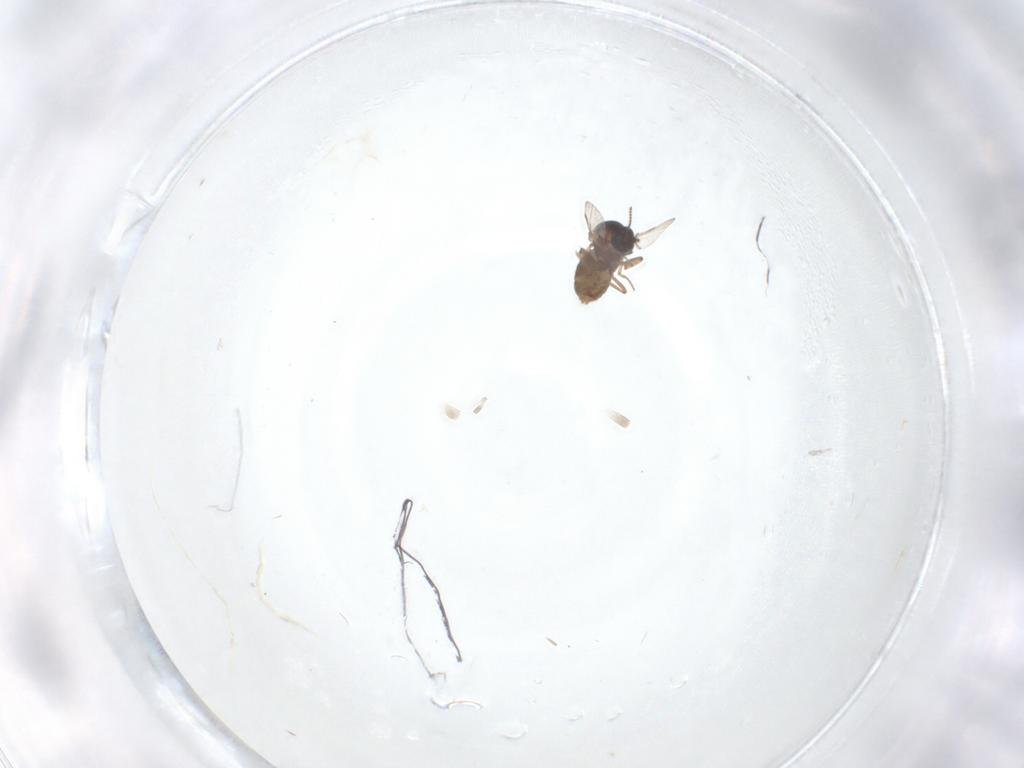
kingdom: Animalia
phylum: Arthropoda
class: Insecta
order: Diptera
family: Ceratopogonidae
